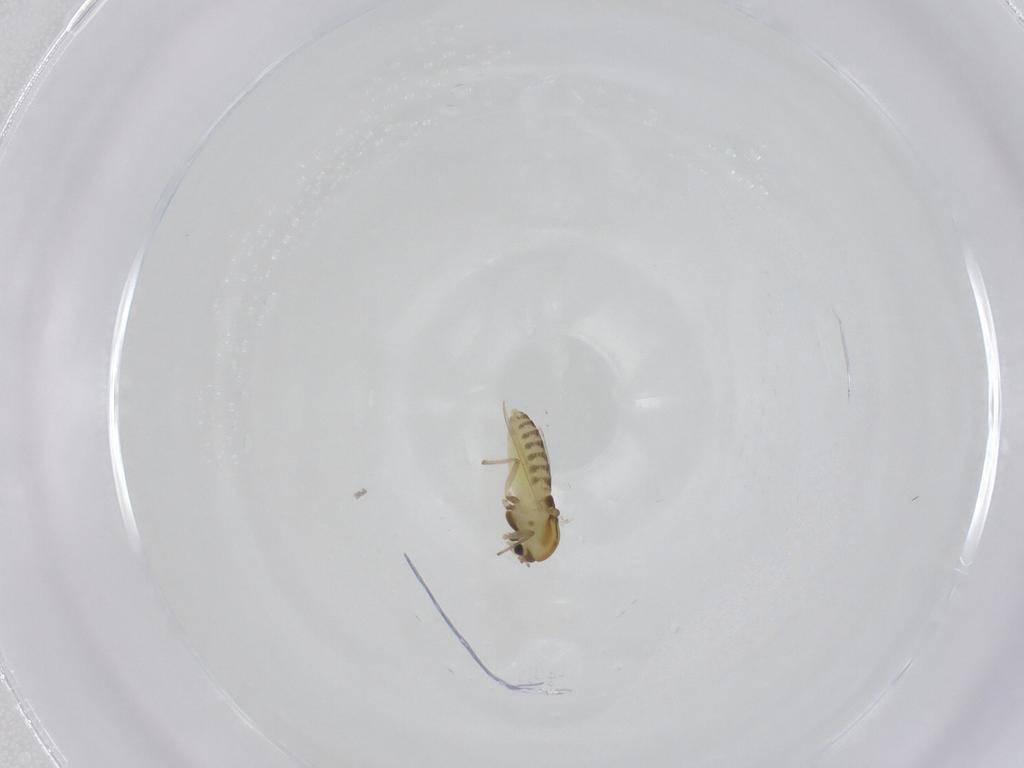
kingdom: Animalia
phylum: Arthropoda
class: Insecta
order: Diptera
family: Chironomidae
